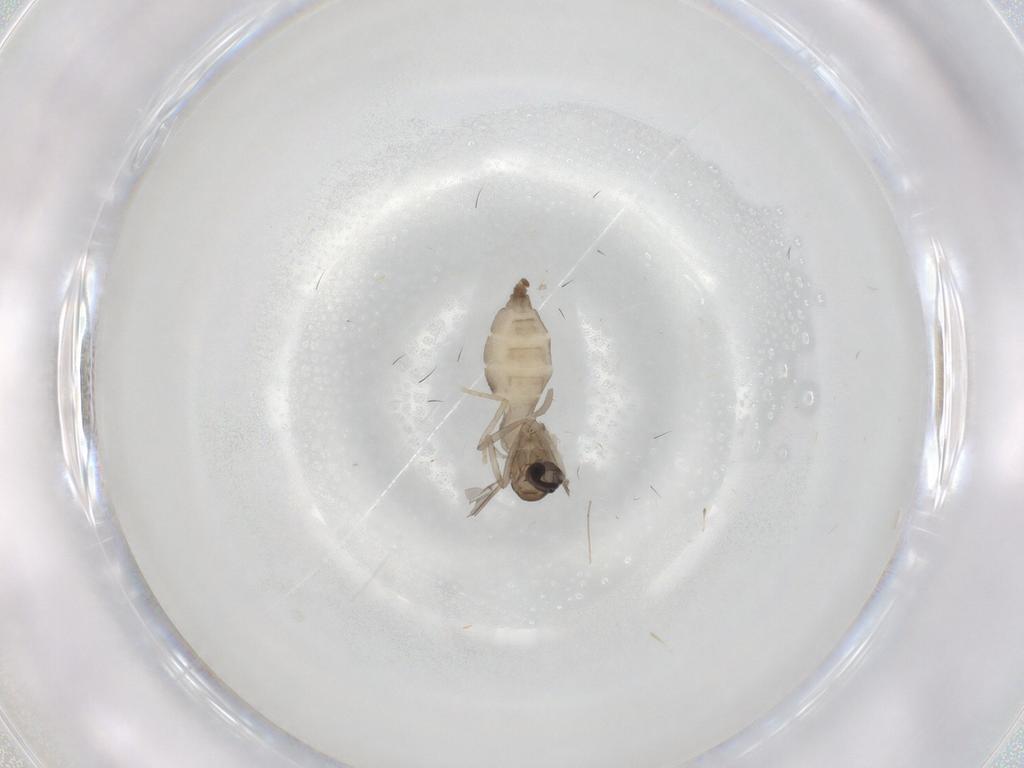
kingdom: Animalia
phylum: Arthropoda
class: Insecta
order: Diptera
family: Cecidomyiidae
